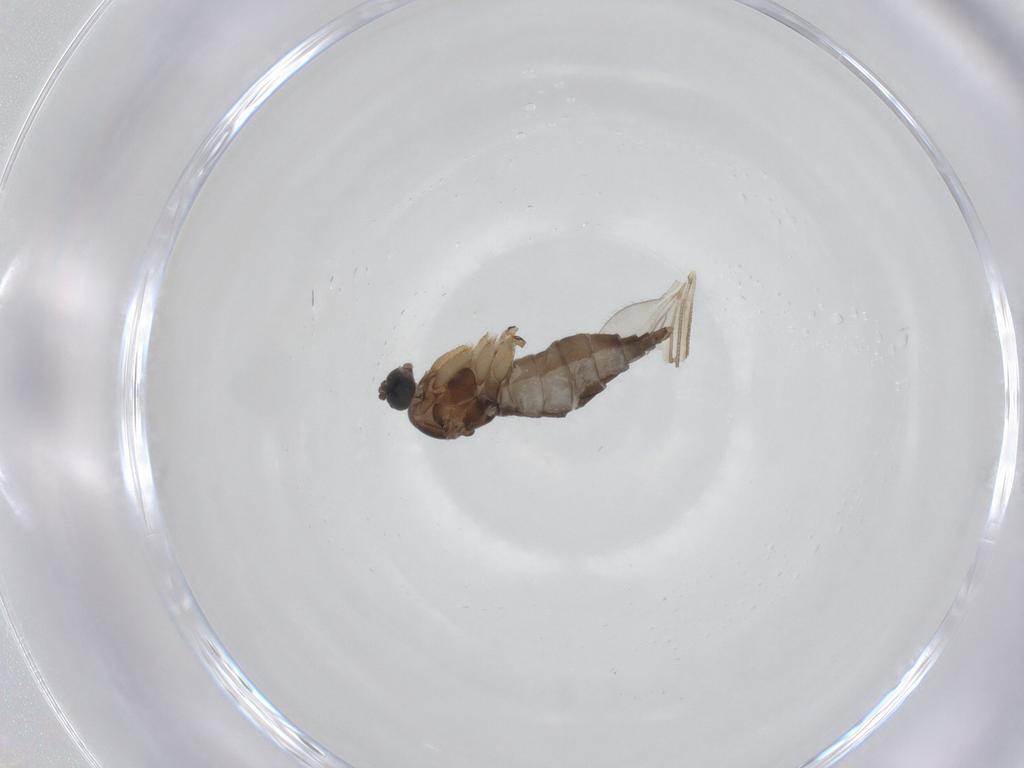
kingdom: Animalia
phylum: Arthropoda
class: Insecta
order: Diptera
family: Sciaridae
